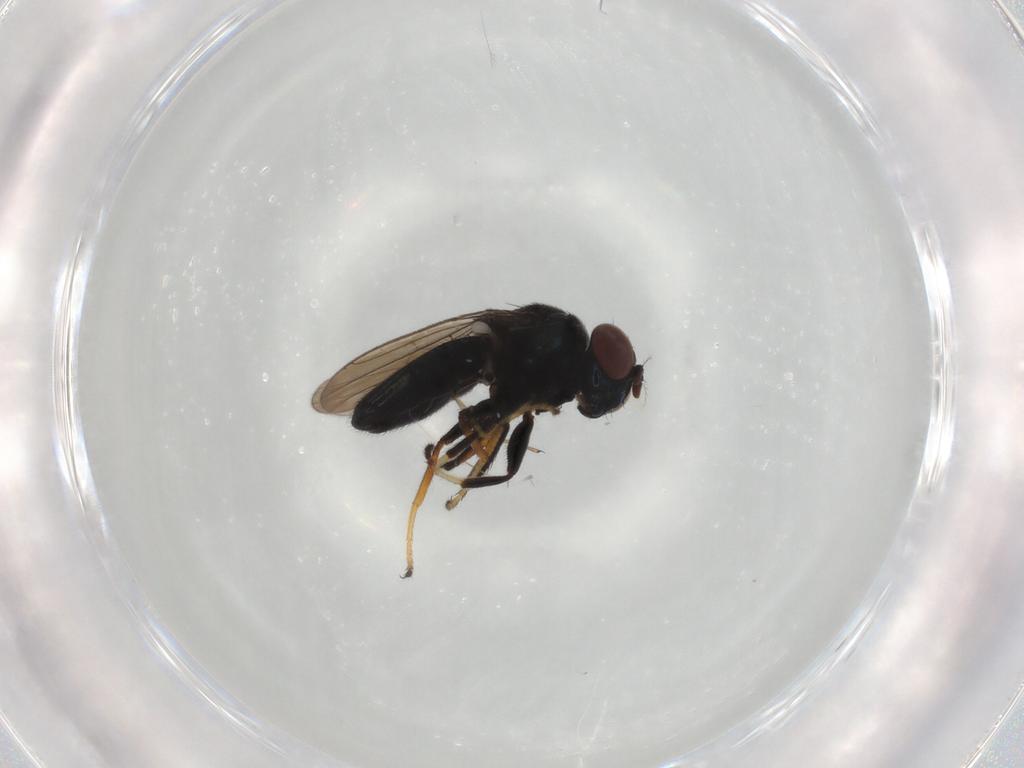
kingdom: Animalia
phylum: Arthropoda
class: Insecta
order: Diptera
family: Ephydridae
